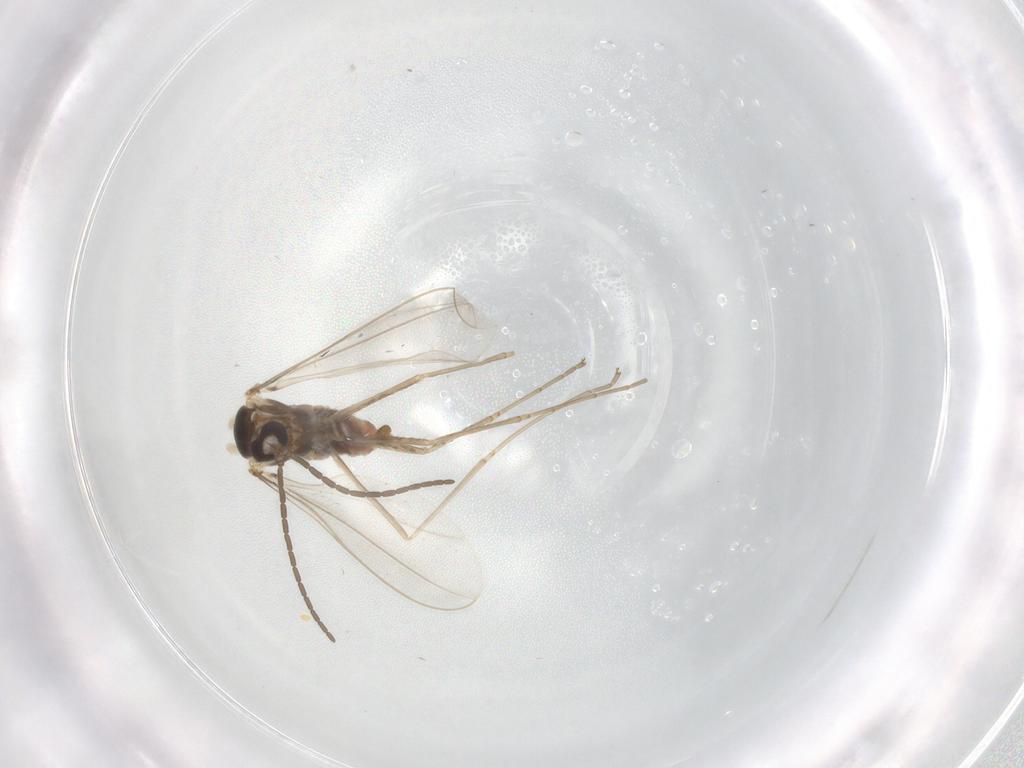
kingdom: Animalia
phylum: Arthropoda
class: Insecta
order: Diptera
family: Cecidomyiidae
